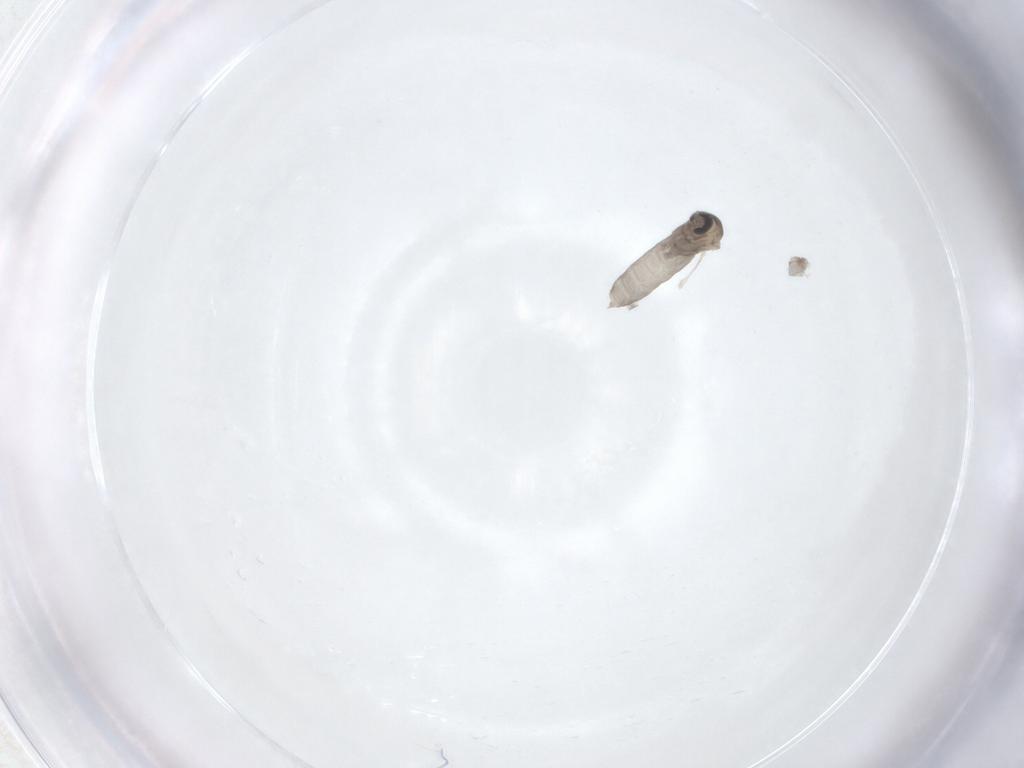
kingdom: Animalia
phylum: Arthropoda
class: Insecta
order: Diptera
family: Cecidomyiidae
